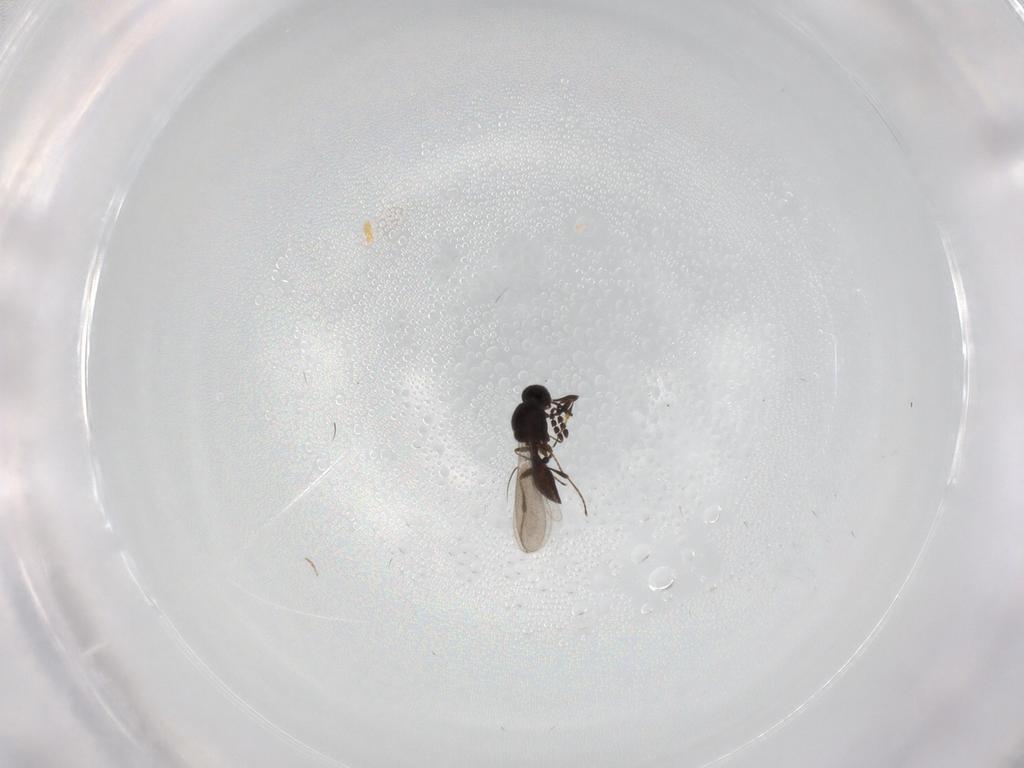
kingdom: Animalia
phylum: Arthropoda
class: Insecta
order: Hymenoptera
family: Platygastridae
